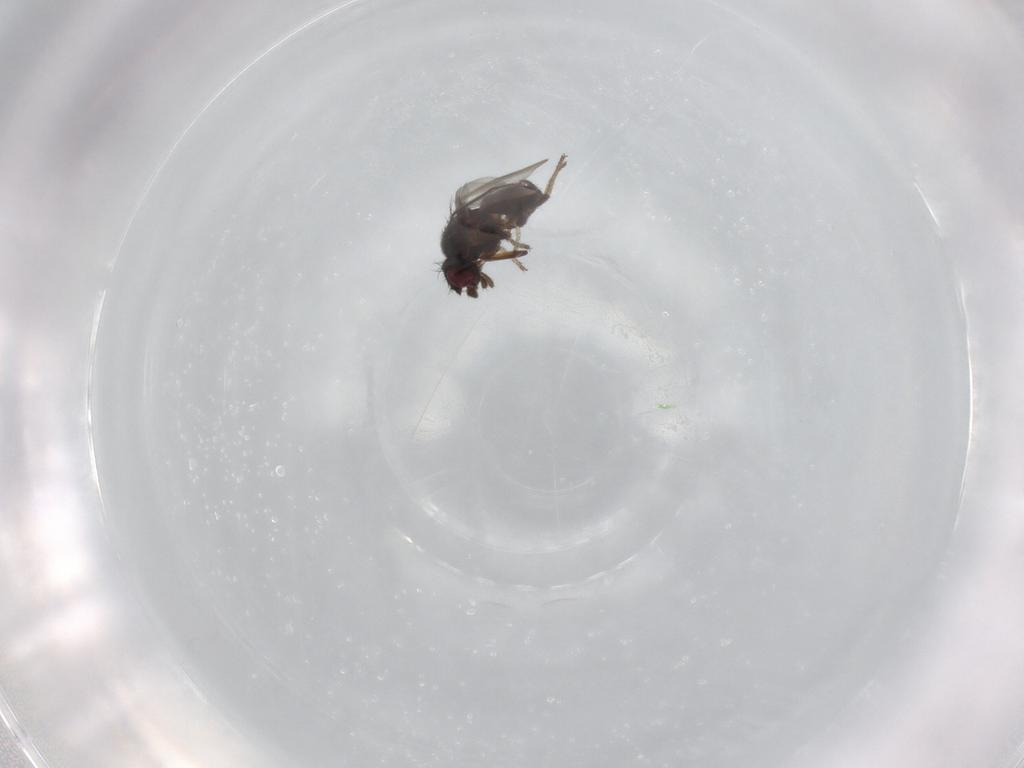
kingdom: Animalia
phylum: Arthropoda
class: Insecta
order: Diptera
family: Milichiidae
